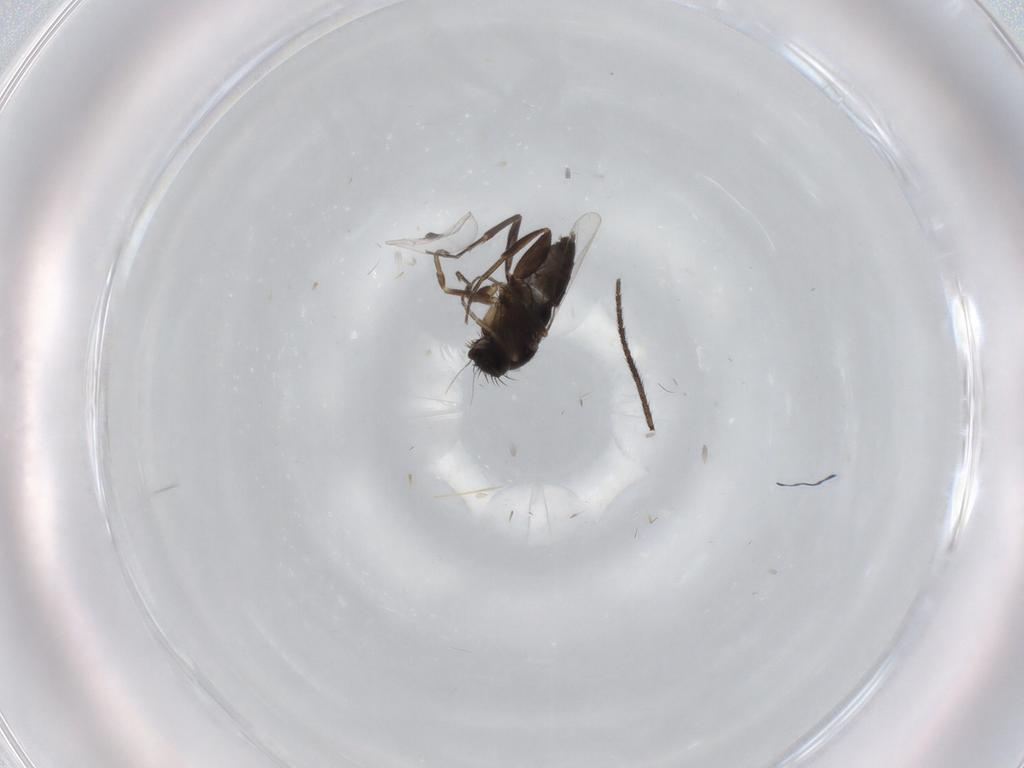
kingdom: Animalia
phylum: Arthropoda
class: Insecta
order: Diptera
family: Phoridae
